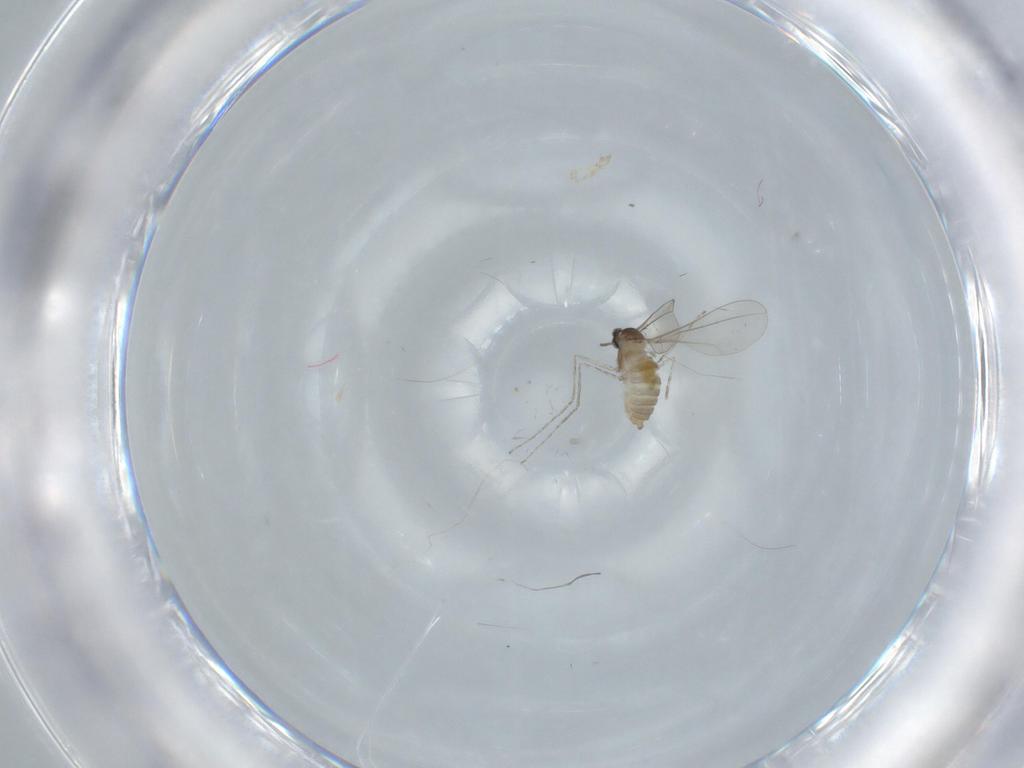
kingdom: Animalia
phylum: Arthropoda
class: Insecta
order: Diptera
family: Cecidomyiidae
